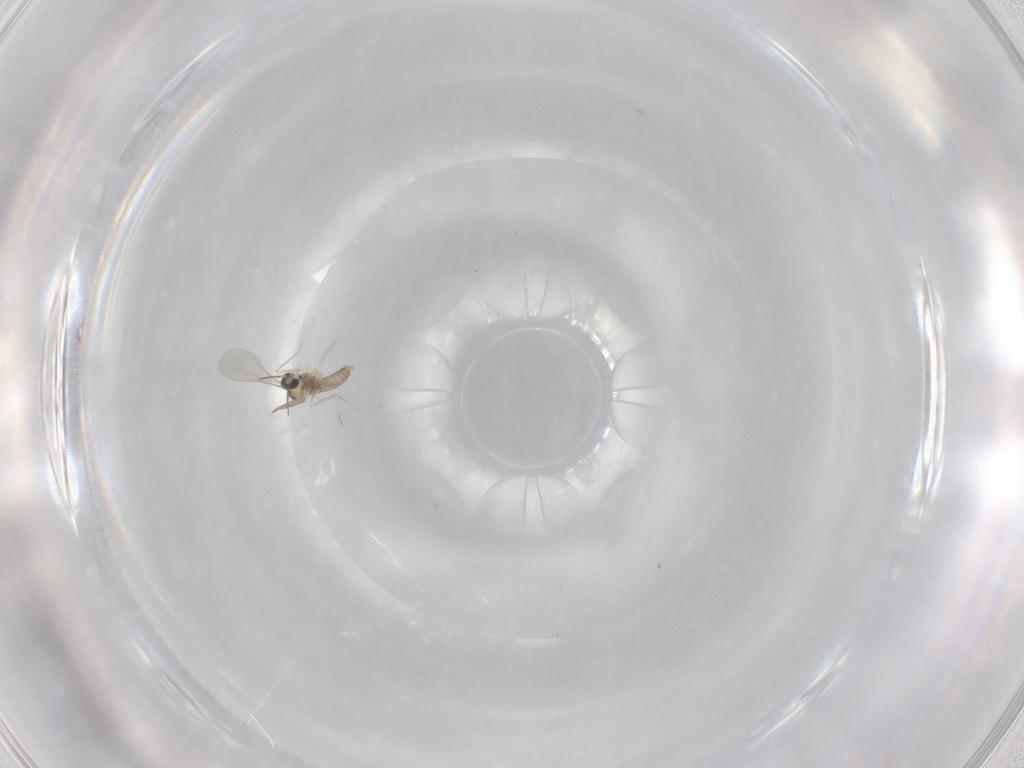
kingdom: Animalia
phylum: Arthropoda
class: Insecta
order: Diptera
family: Cecidomyiidae
